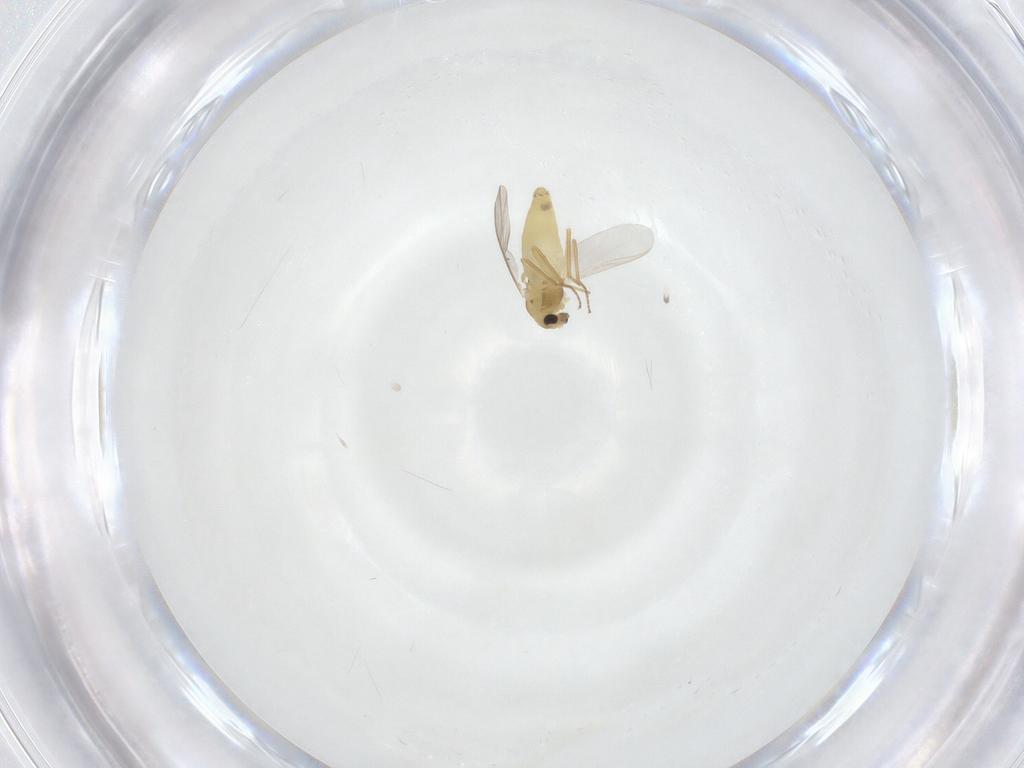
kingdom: Animalia
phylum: Arthropoda
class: Insecta
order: Diptera
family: Chironomidae
